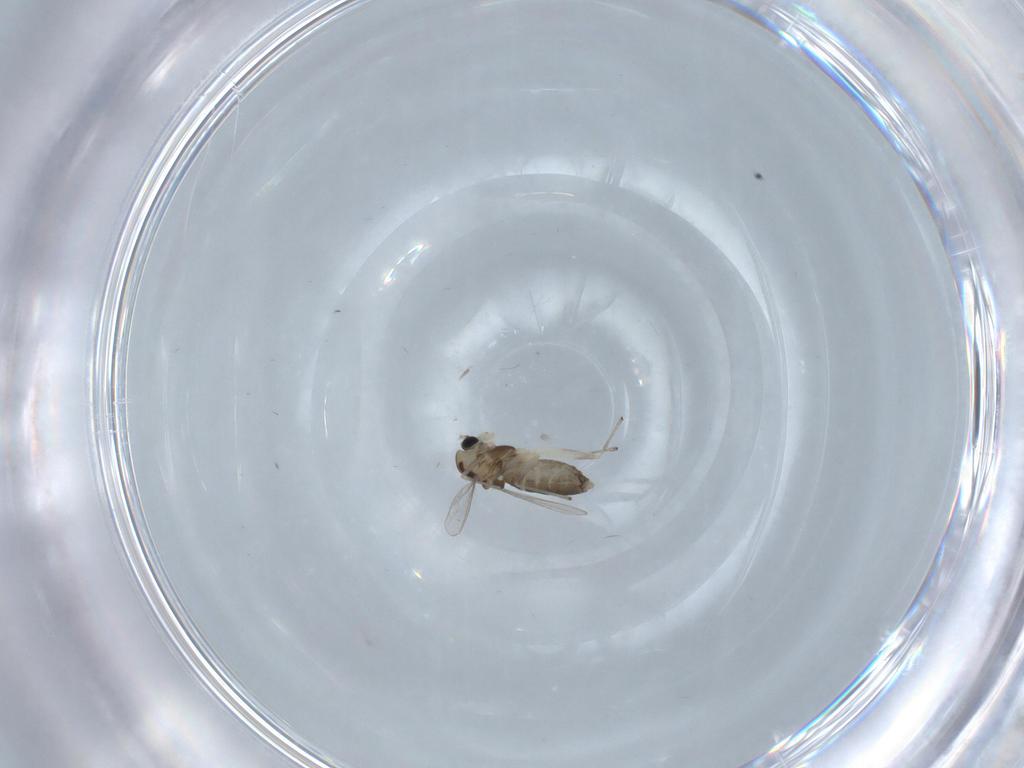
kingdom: Animalia
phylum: Arthropoda
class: Insecta
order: Diptera
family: Chironomidae
